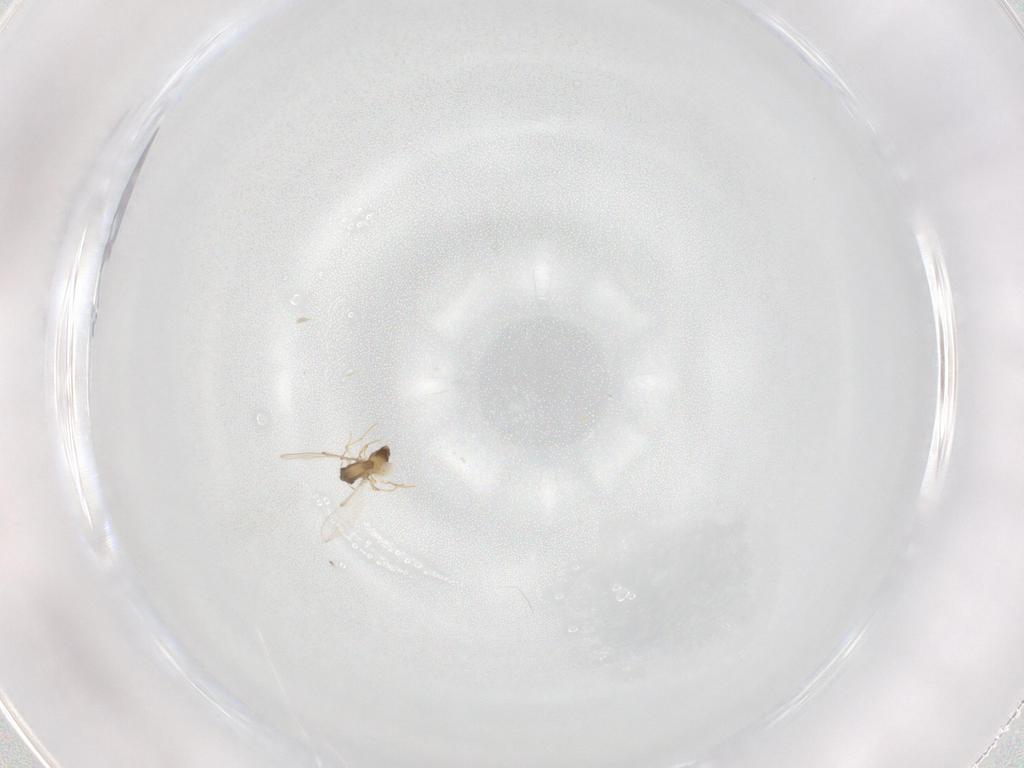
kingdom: Animalia
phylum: Arthropoda
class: Insecta
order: Diptera
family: Chironomidae
